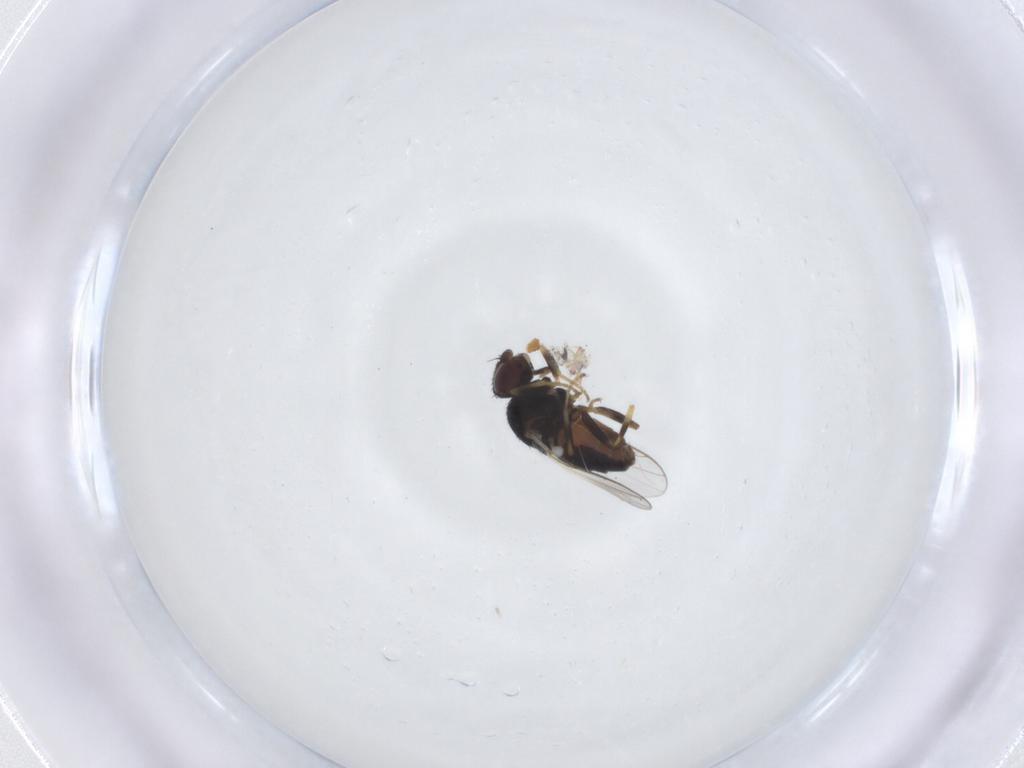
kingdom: Animalia
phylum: Arthropoda
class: Insecta
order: Diptera
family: Chloropidae
